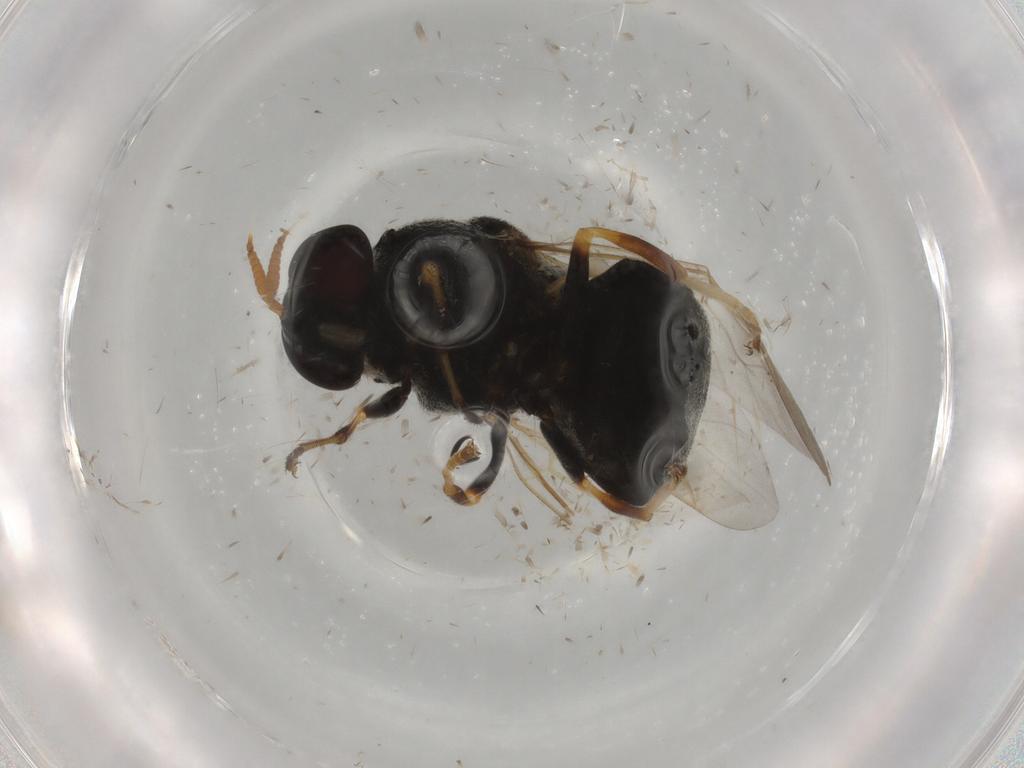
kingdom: Animalia
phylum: Arthropoda
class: Insecta
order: Diptera
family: Stratiomyidae
